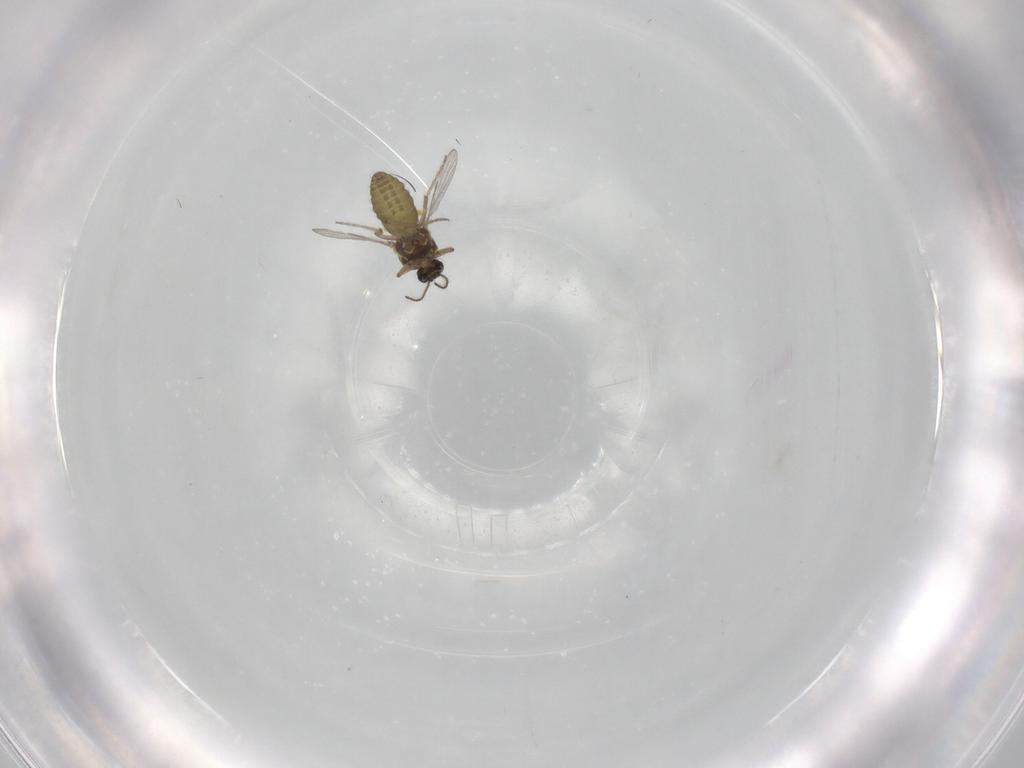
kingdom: Animalia
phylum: Arthropoda
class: Insecta
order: Diptera
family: Ceratopogonidae
